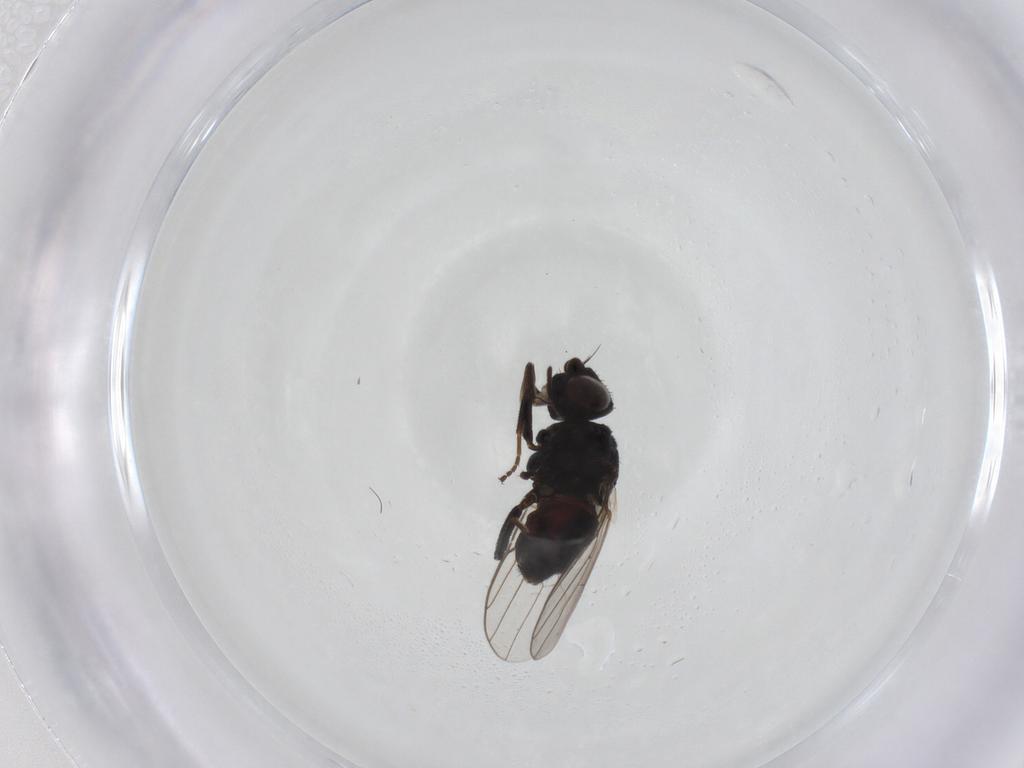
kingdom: Animalia
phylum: Arthropoda
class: Insecta
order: Diptera
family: Chloropidae
